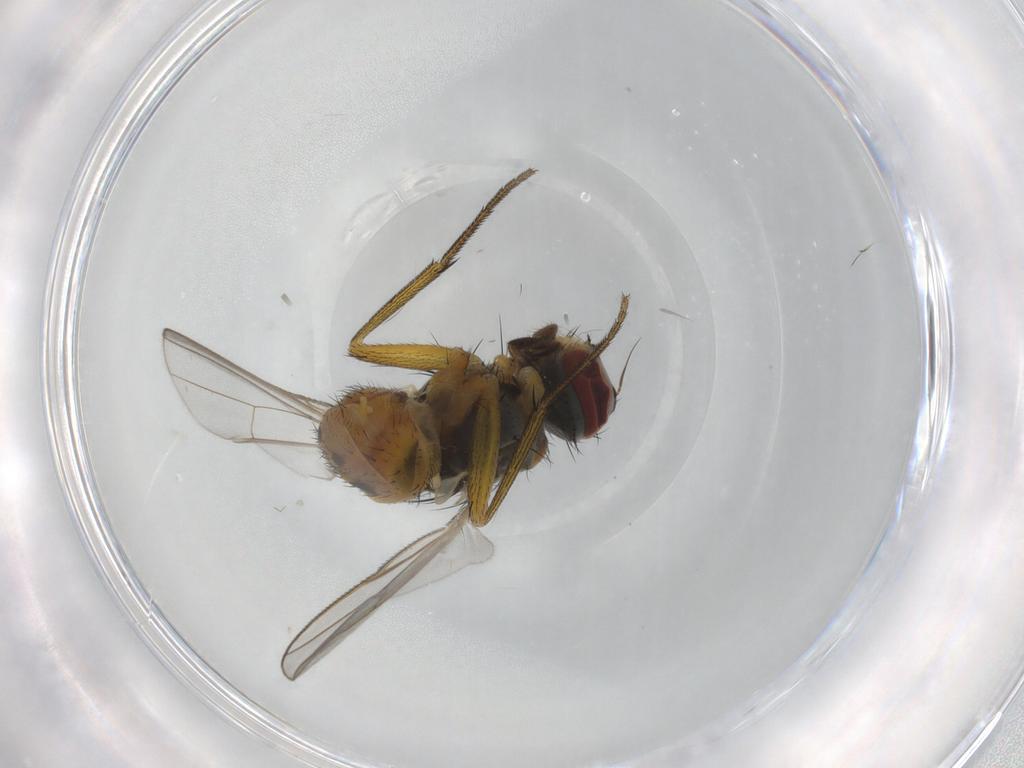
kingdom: Animalia
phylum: Arthropoda
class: Insecta
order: Diptera
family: Muscidae
